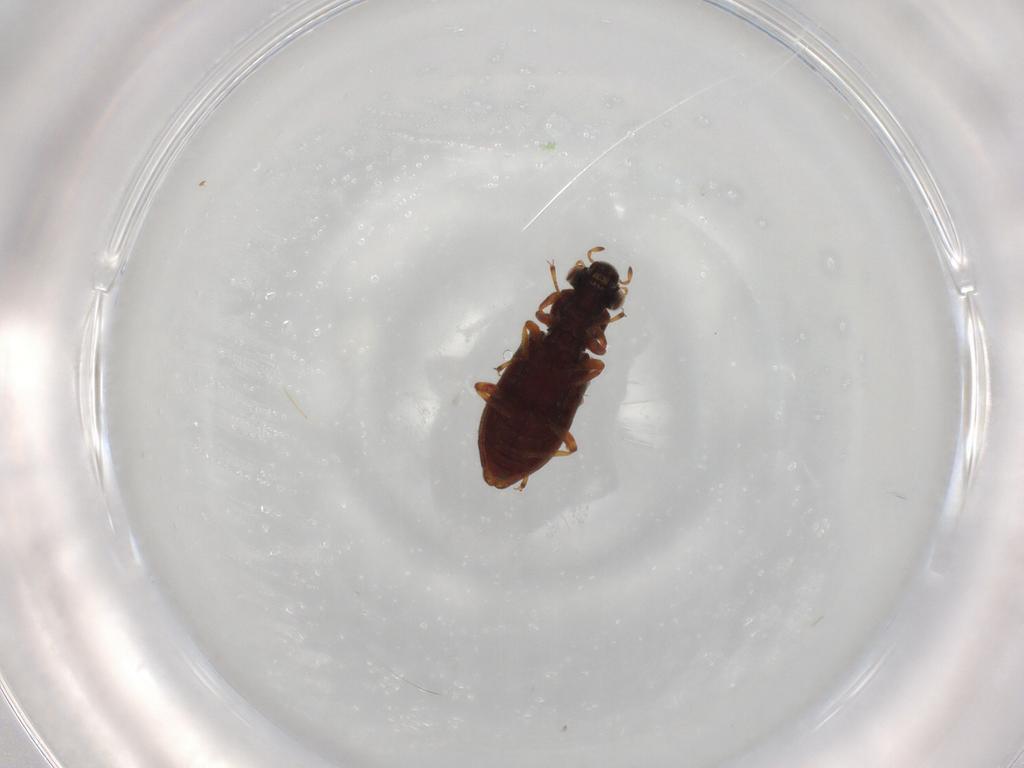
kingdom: Animalia
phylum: Arthropoda
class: Insecta
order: Coleoptera
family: Hydrophilidae
